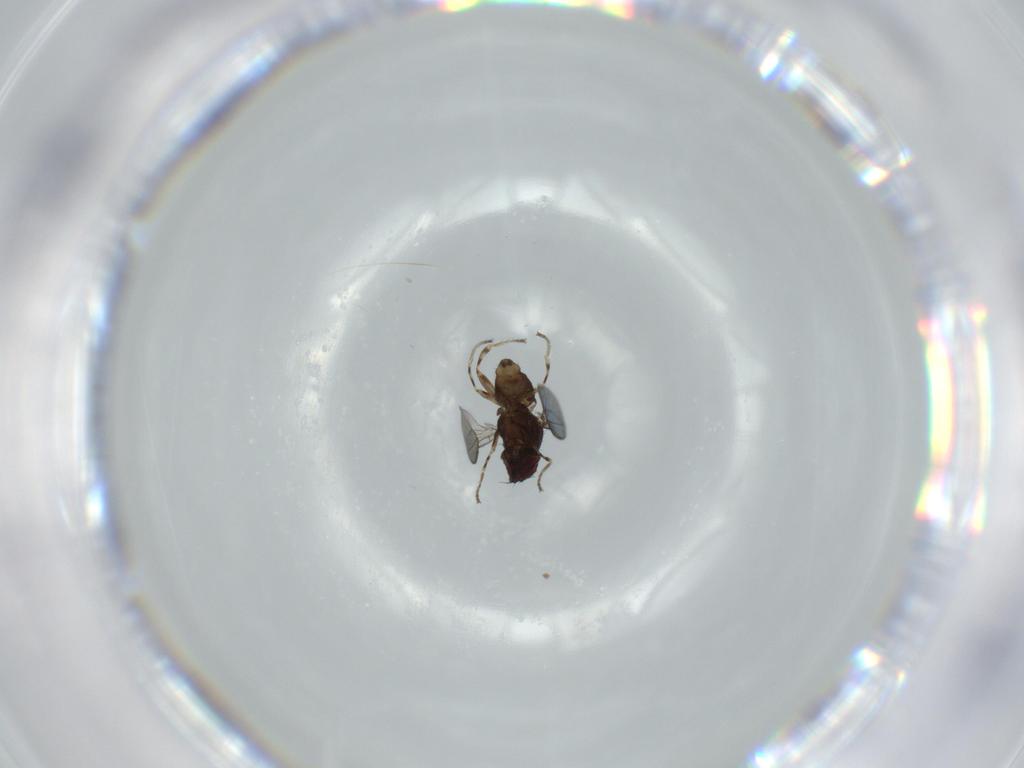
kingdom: Animalia
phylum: Arthropoda
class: Insecta
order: Diptera
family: Chloropidae
